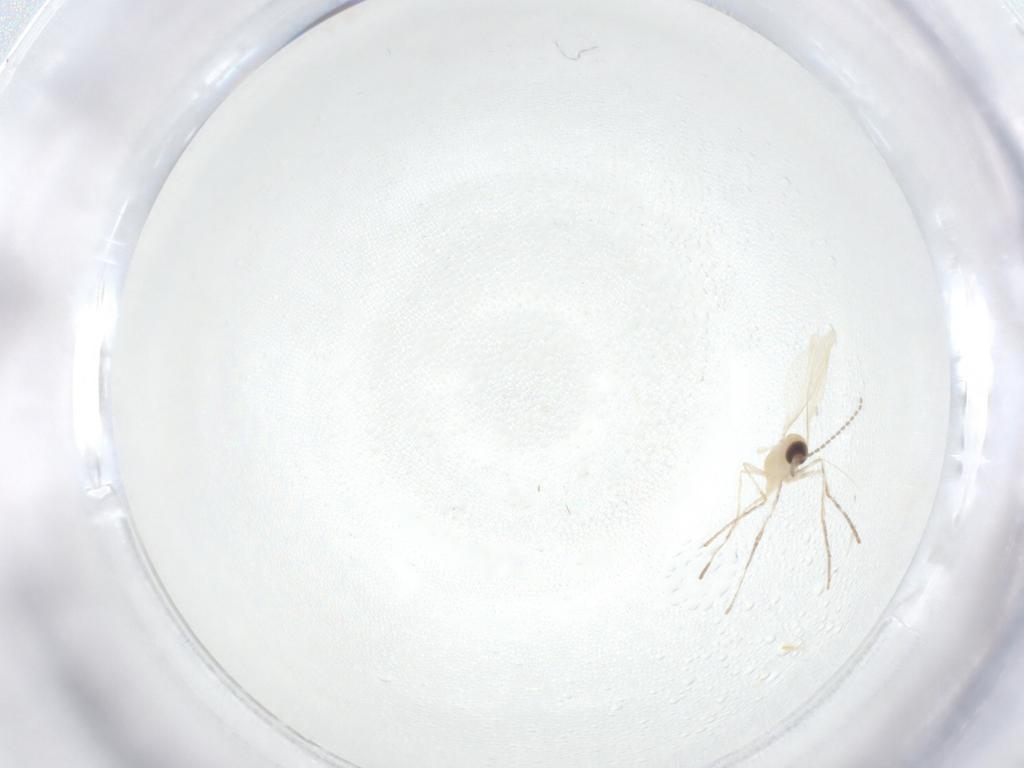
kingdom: Animalia
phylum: Arthropoda
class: Insecta
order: Diptera
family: Cecidomyiidae
